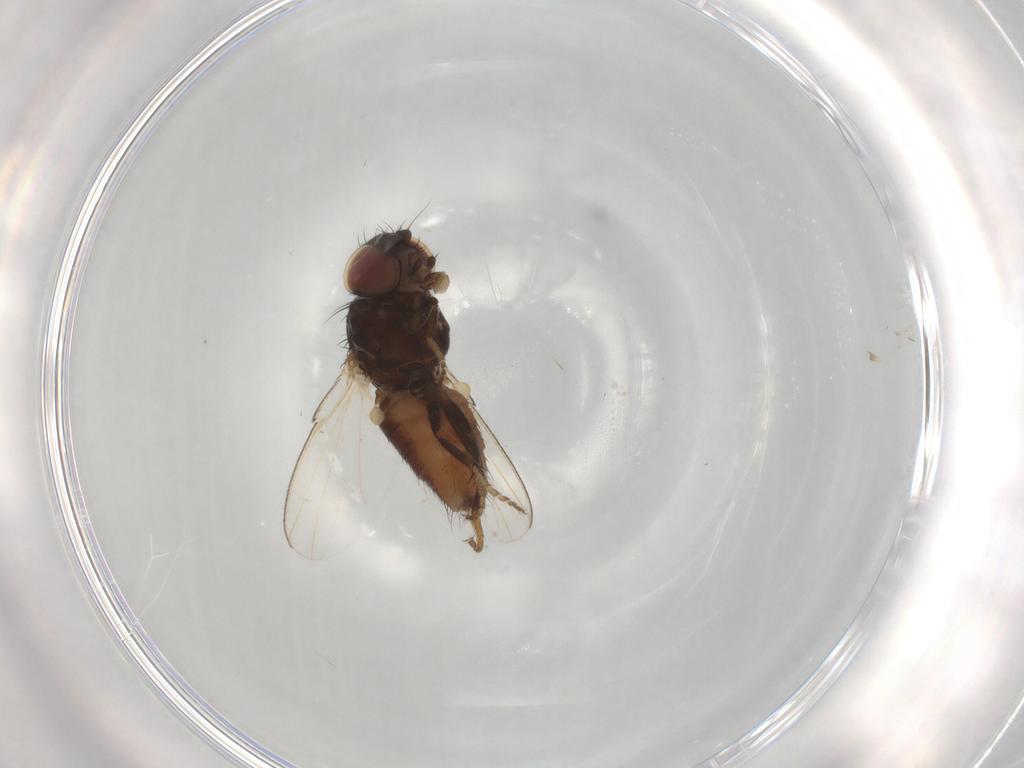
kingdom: Animalia
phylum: Arthropoda
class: Insecta
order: Diptera
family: Milichiidae
